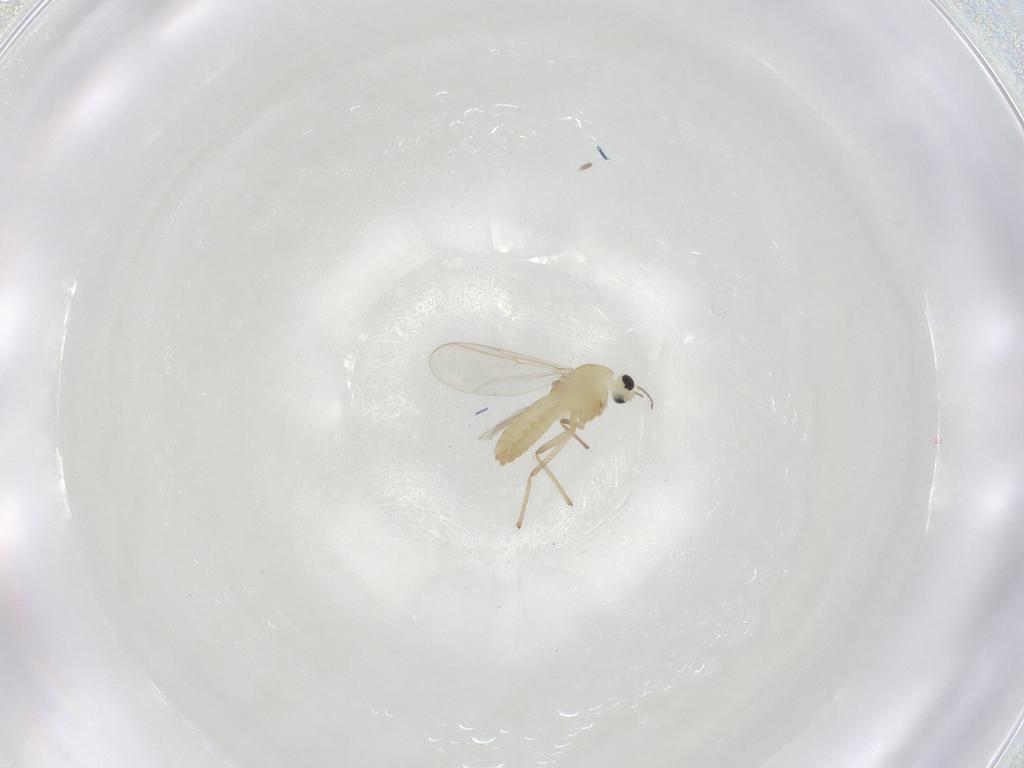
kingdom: Animalia
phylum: Arthropoda
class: Insecta
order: Diptera
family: Chironomidae
